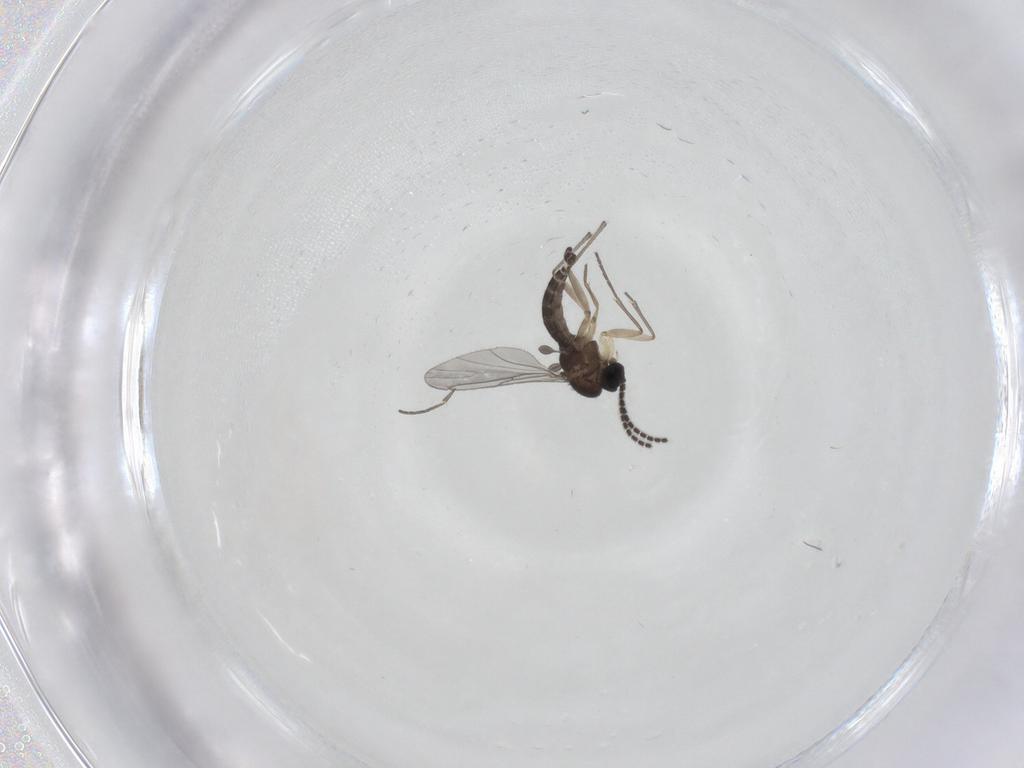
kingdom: Animalia
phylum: Arthropoda
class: Insecta
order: Diptera
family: Sciaridae
